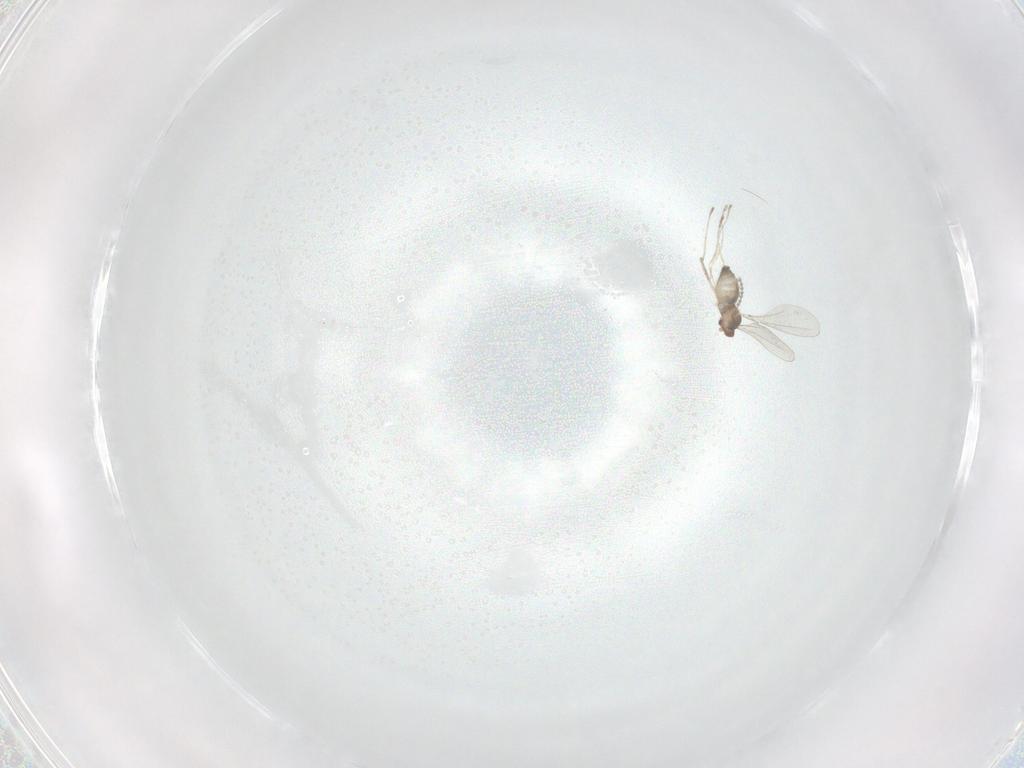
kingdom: Animalia
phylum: Arthropoda
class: Insecta
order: Diptera
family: Cecidomyiidae
